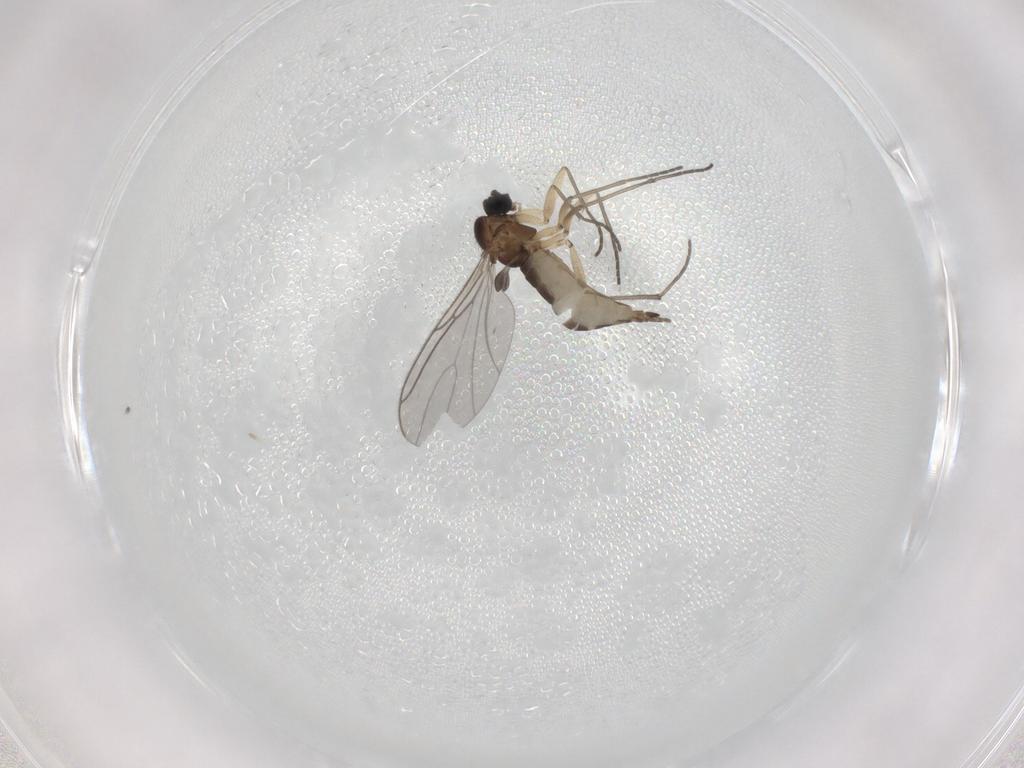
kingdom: Animalia
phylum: Arthropoda
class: Insecta
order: Diptera
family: Sciaridae
